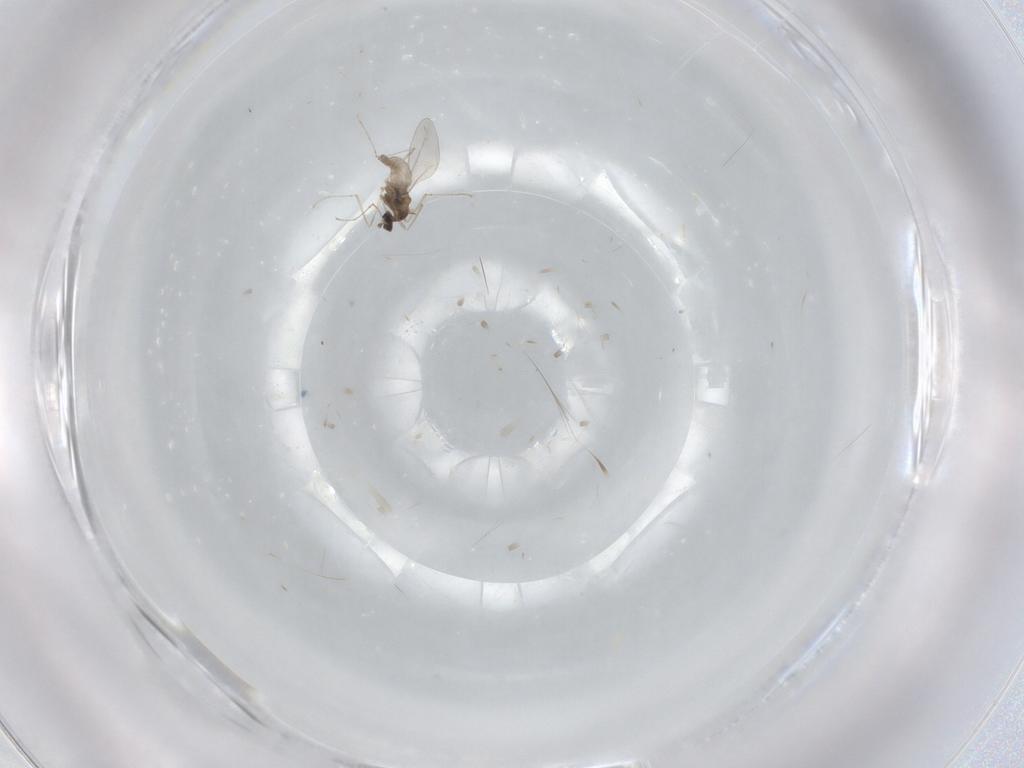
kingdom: Animalia
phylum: Arthropoda
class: Insecta
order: Diptera
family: Cecidomyiidae
